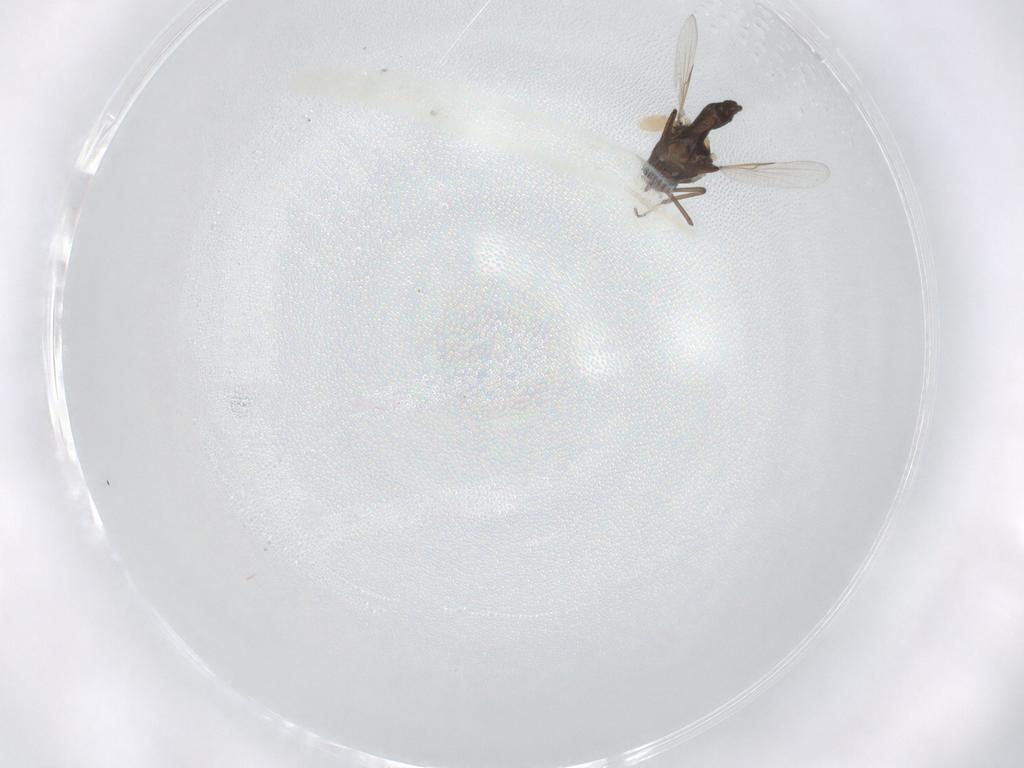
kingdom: Animalia
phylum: Arthropoda
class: Insecta
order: Diptera
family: Ceratopogonidae
